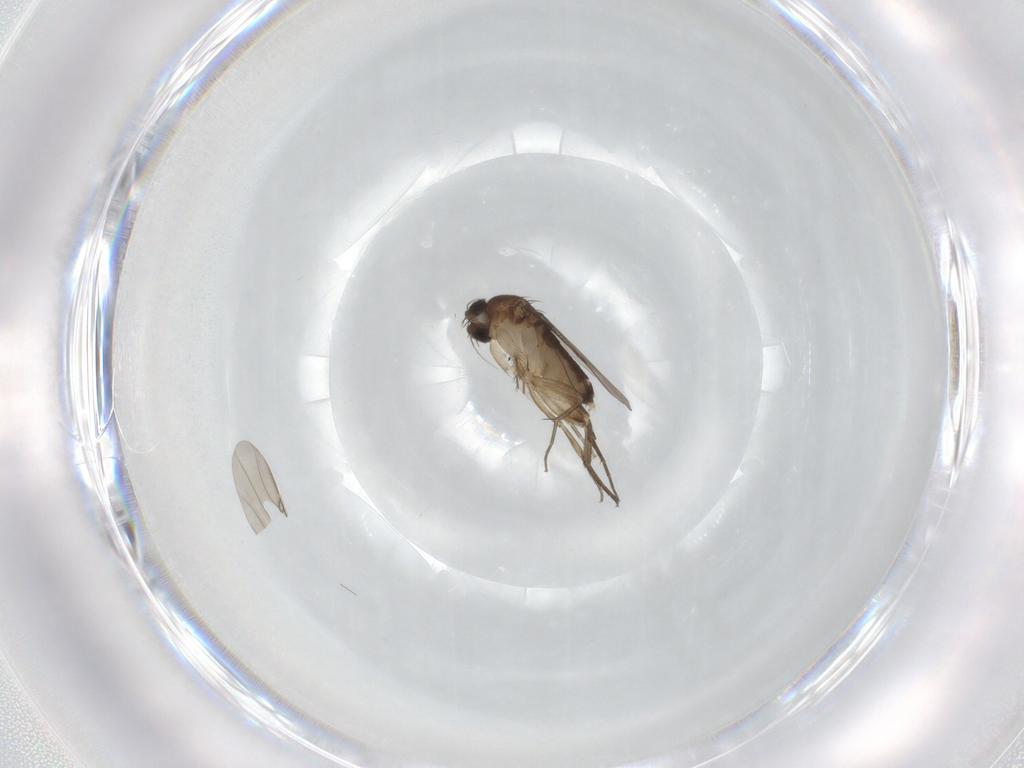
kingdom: Animalia
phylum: Arthropoda
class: Insecta
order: Diptera
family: Phoridae
